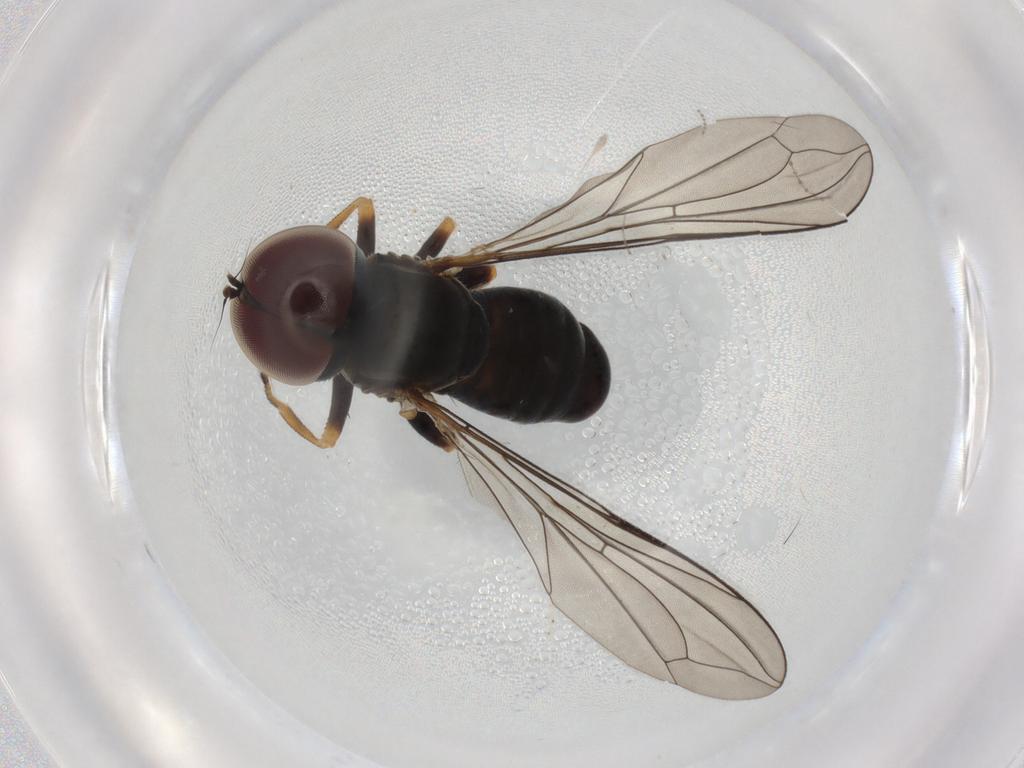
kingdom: Animalia
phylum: Arthropoda
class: Insecta
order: Diptera
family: Pipunculidae
